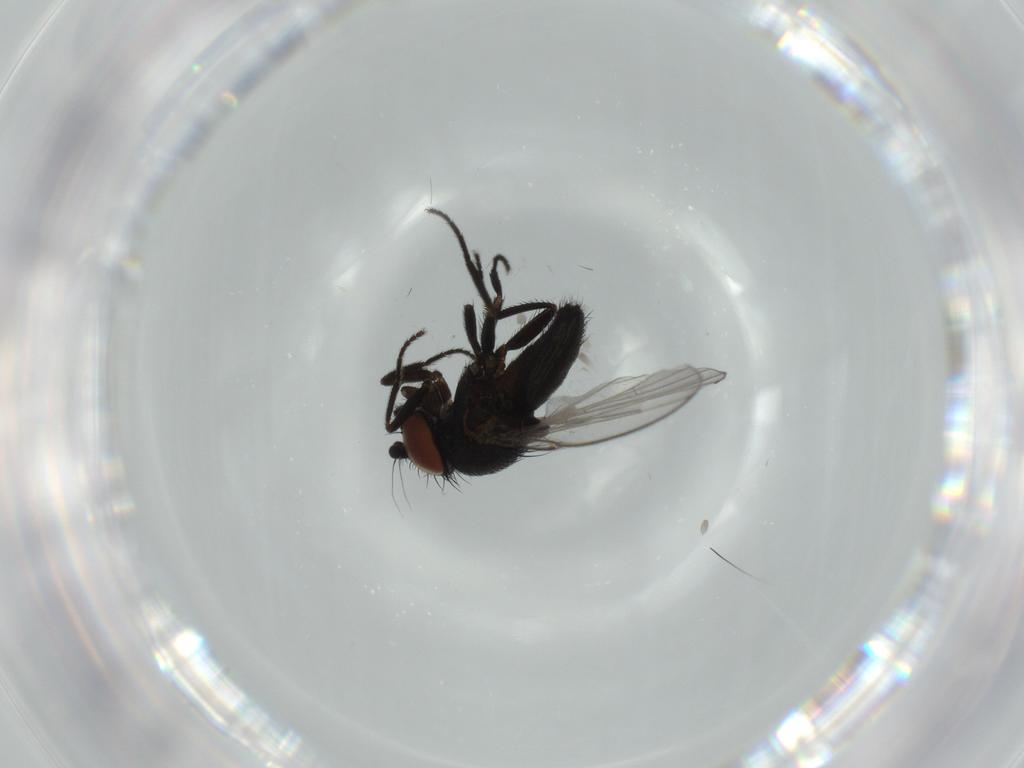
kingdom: Animalia
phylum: Arthropoda
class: Insecta
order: Diptera
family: Milichiidae
